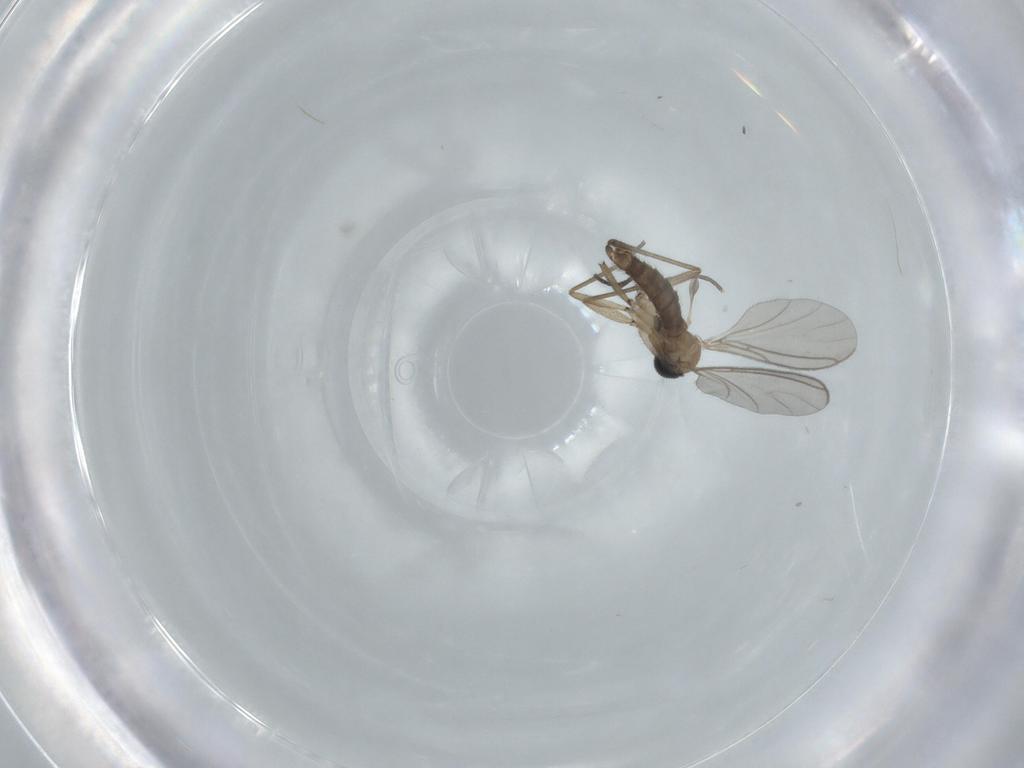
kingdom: Animalia
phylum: Arthropoda
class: Insecta
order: Diptera
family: Sciaridae
